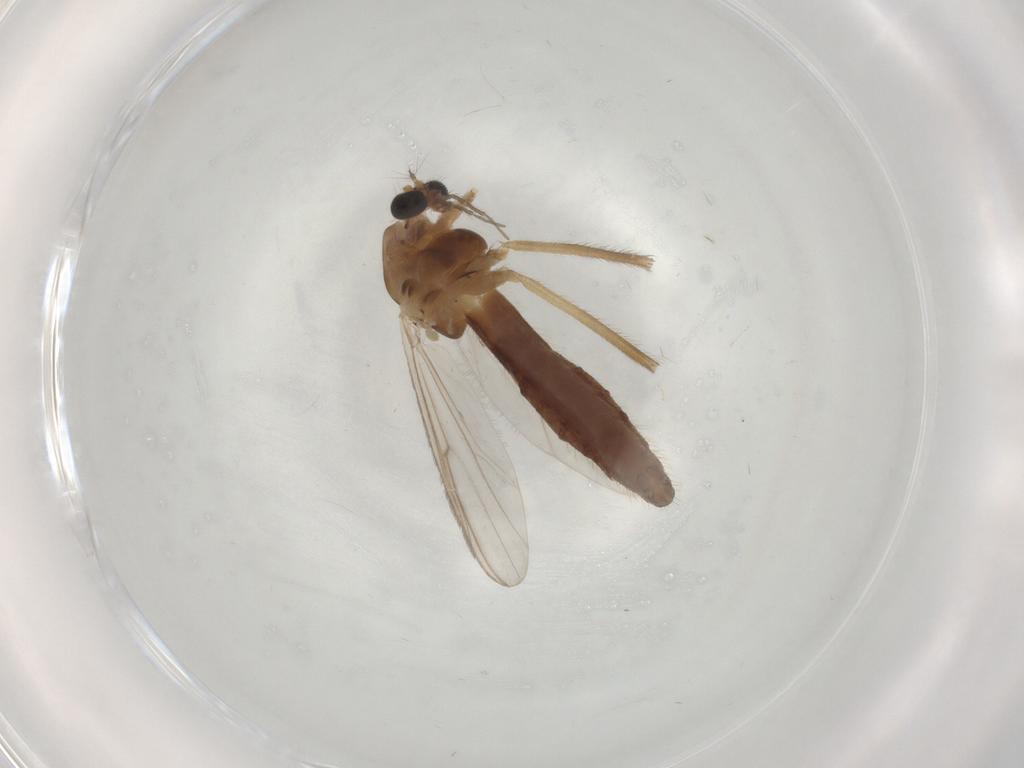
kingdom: Animalia
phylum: Arthropoda
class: Insecta
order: Diptera
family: Chironomidae
